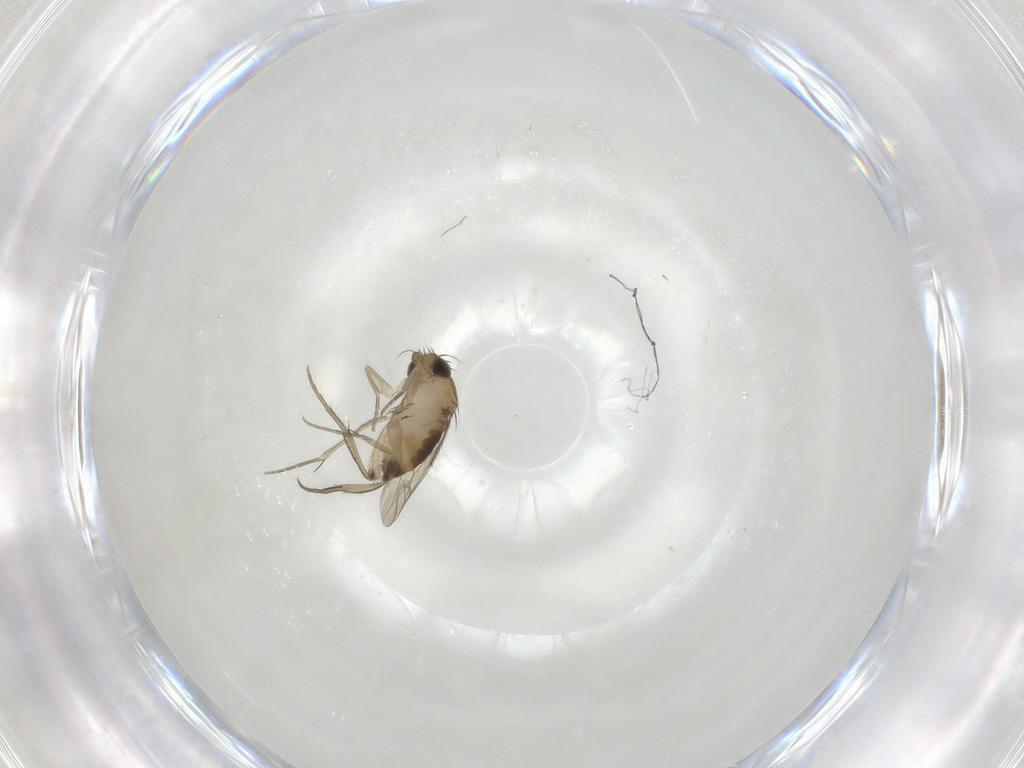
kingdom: Animalia
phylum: Arthropoda
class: Insecta
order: Diptera
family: Phoridae
